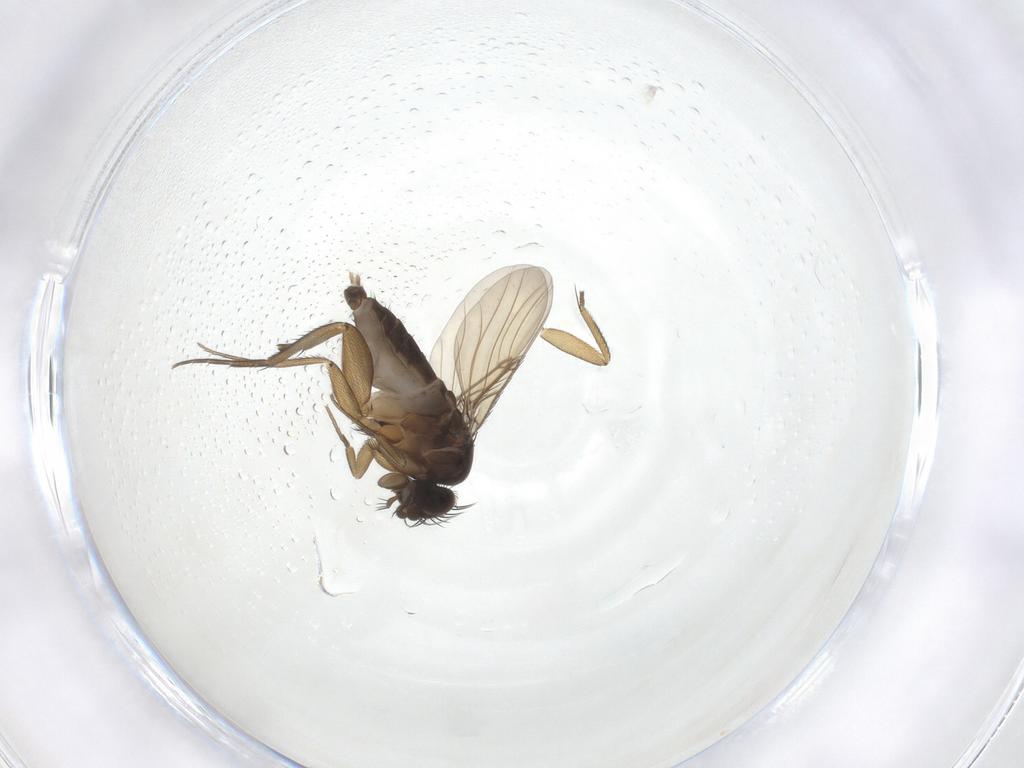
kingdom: Animalia
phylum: Arthropoda
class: Insecta
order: Diptera
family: Phoridae
